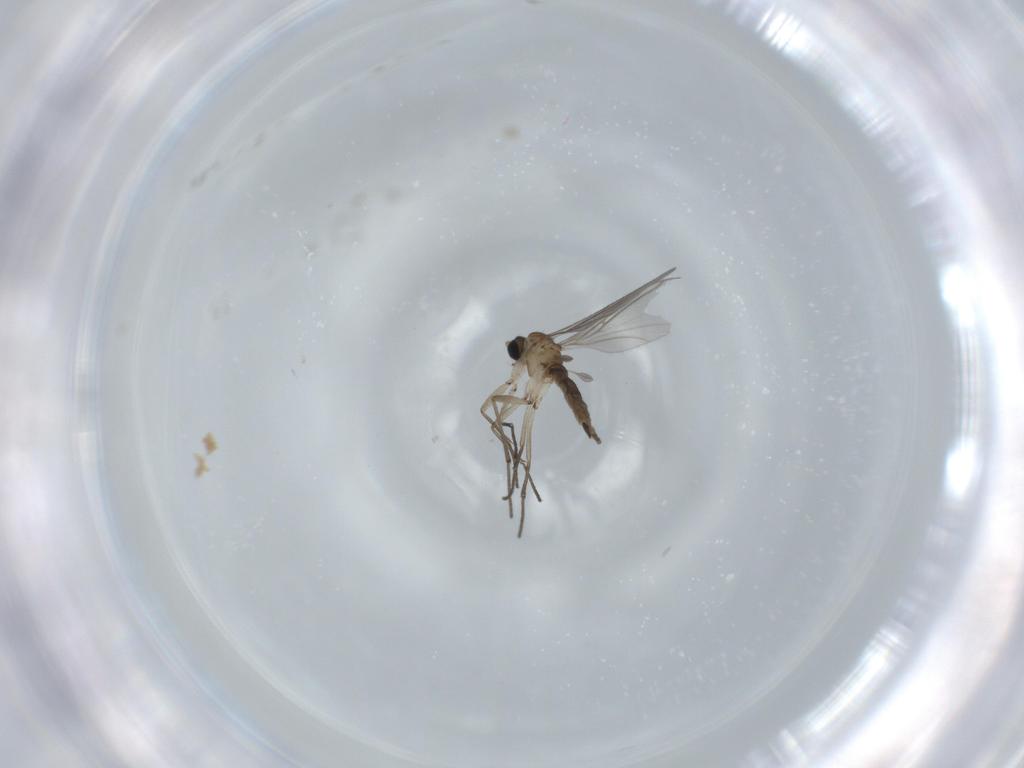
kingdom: Animalia
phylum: Arthropoda
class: Insecta
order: Diptera
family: Sciaridae
